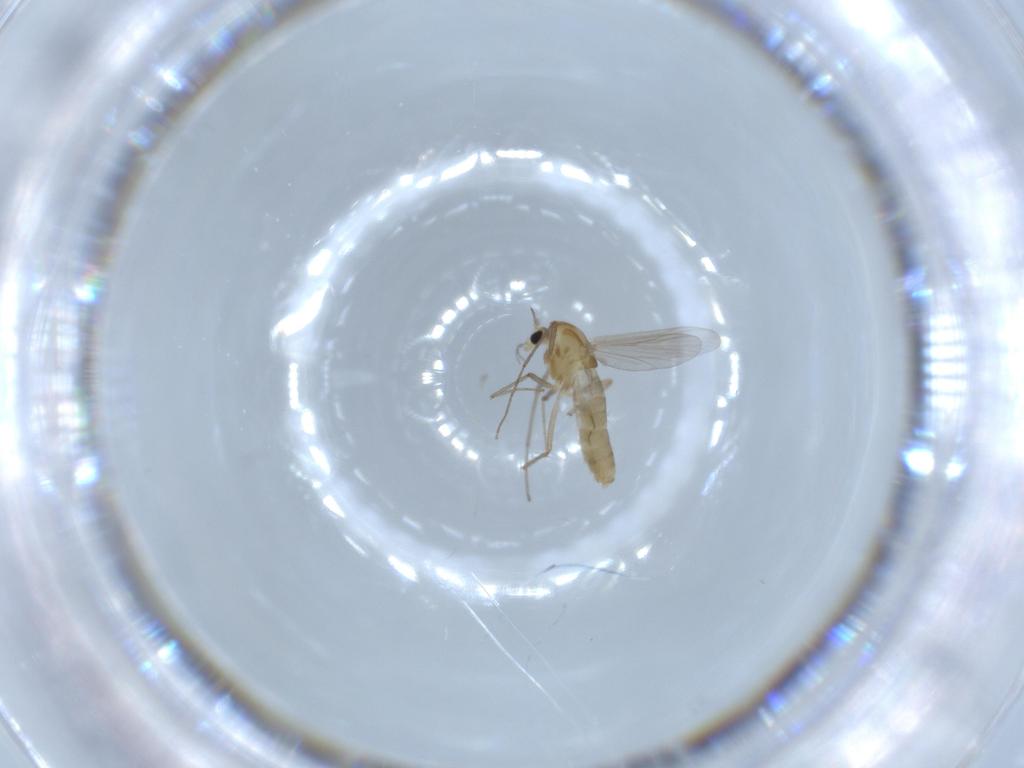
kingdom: Animalia
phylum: Arthropoda
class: Insecta
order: Diptera
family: Chironomidae
